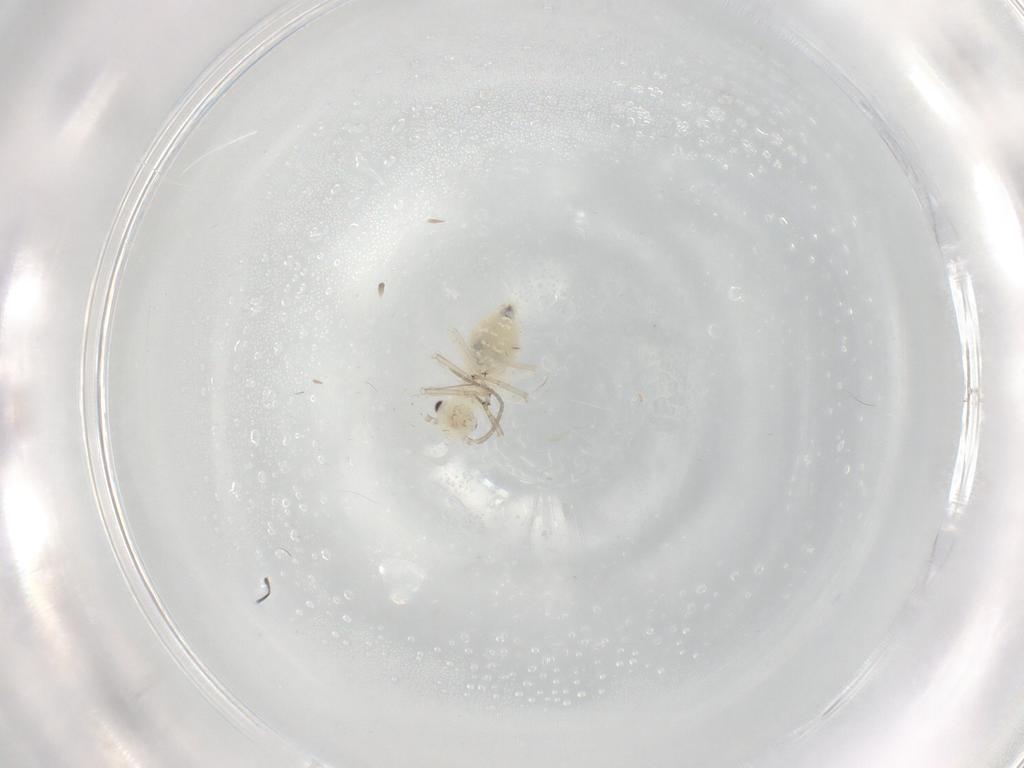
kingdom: Animalia
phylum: Arthropoda
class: Insecta
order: Psocodea
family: Caeciliusidae
